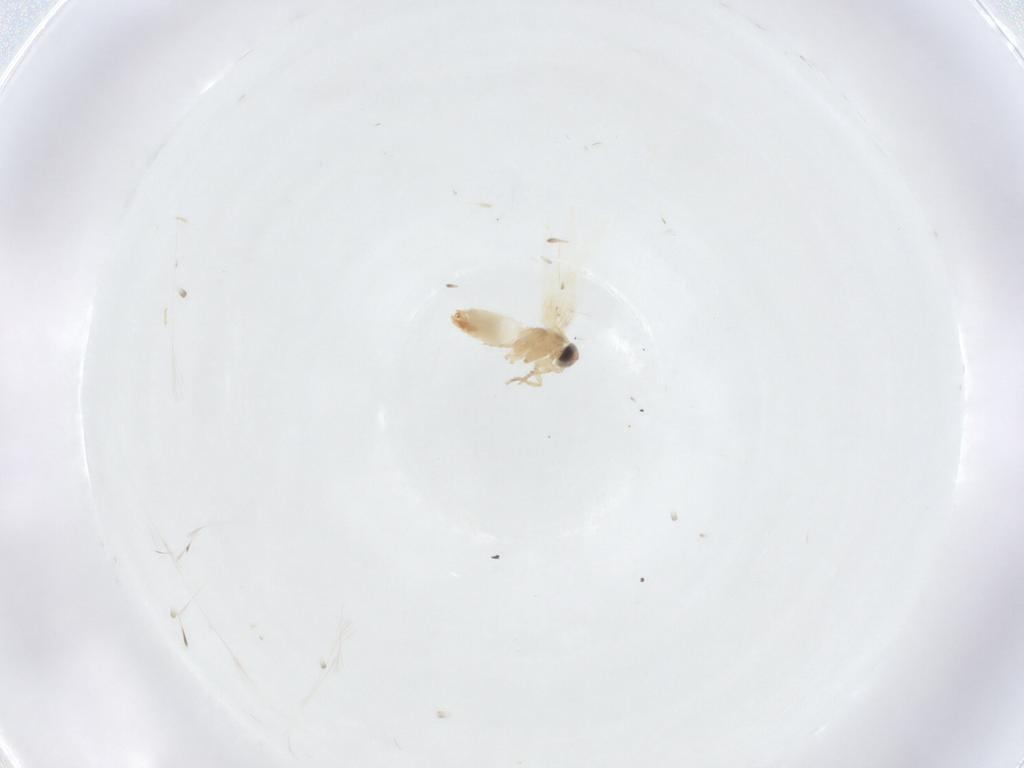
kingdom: Animalia
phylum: Arthropoda
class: Insecta
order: Lepidoptera
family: Crambidae
